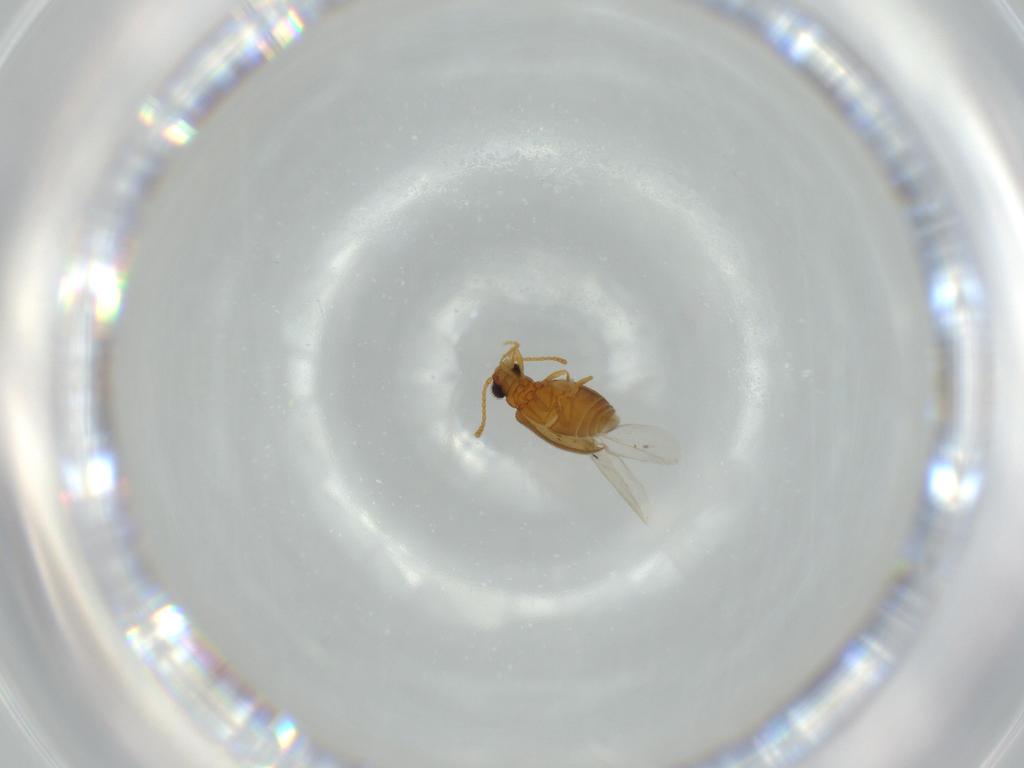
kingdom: Animalia
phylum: Arthropoda
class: Insecta
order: Coleoptera
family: Aderidae
